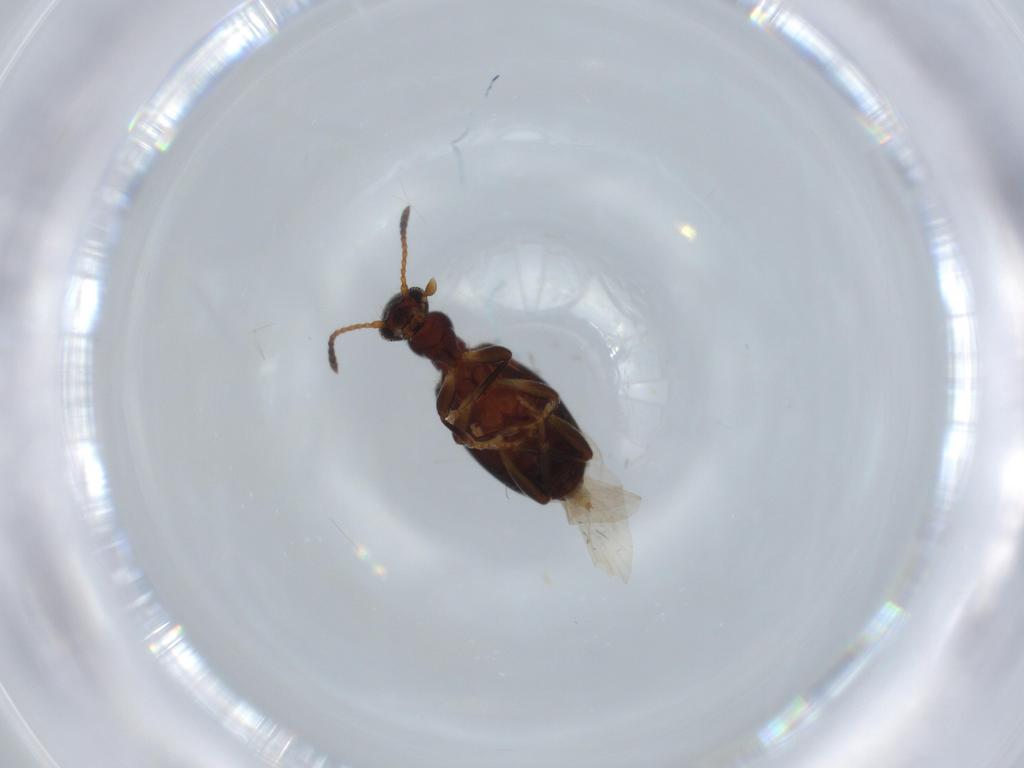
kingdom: Animalia
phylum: Arthropoda
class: Insecta
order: Coleoptera
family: Anthicidae
